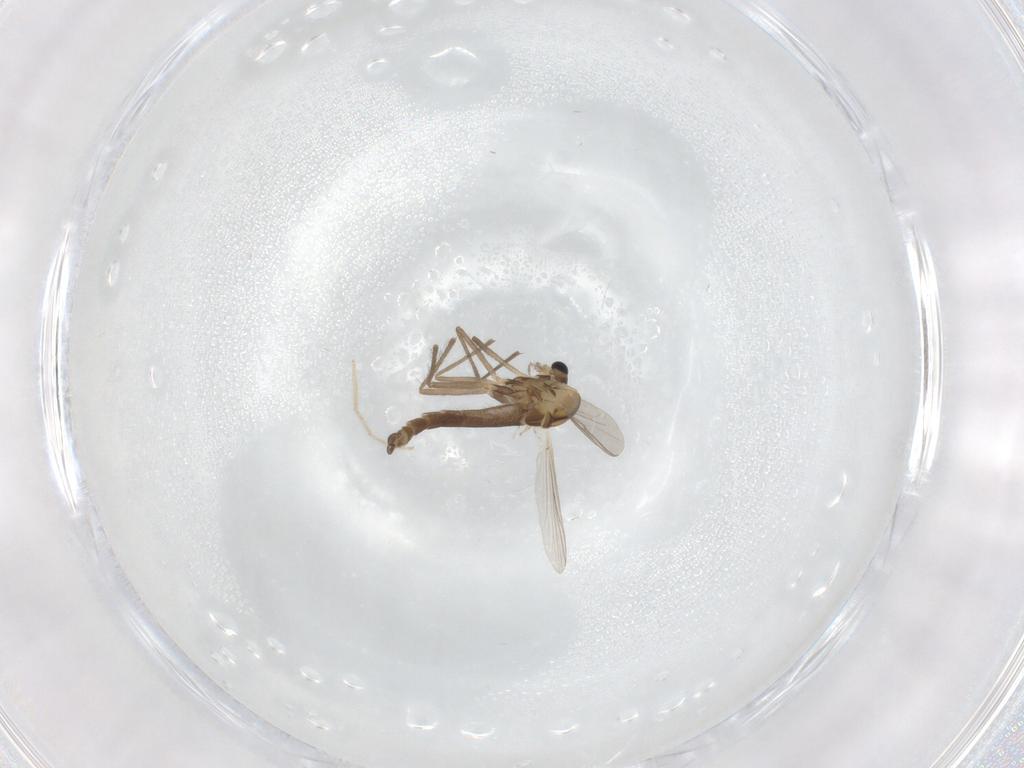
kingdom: Animalia
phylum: Arthropoda
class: Insecta
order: Diptera
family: Chironomidae
